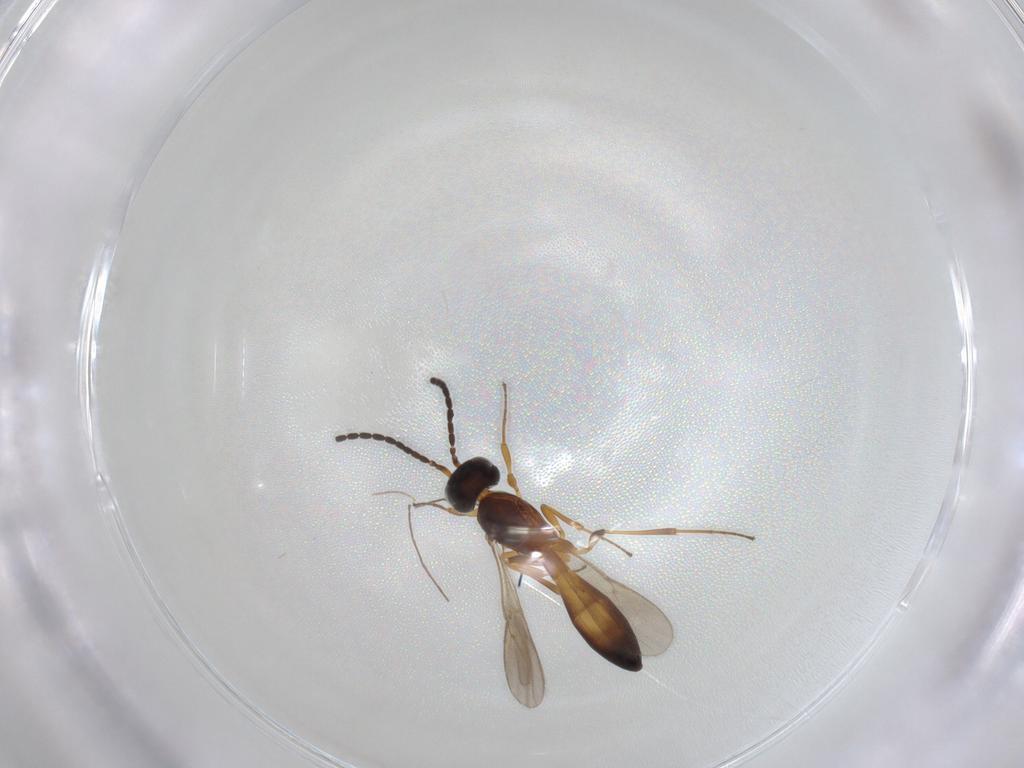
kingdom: Animalia
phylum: Arthropoda
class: Insecta
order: Hymenoptera
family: Scelionidae
